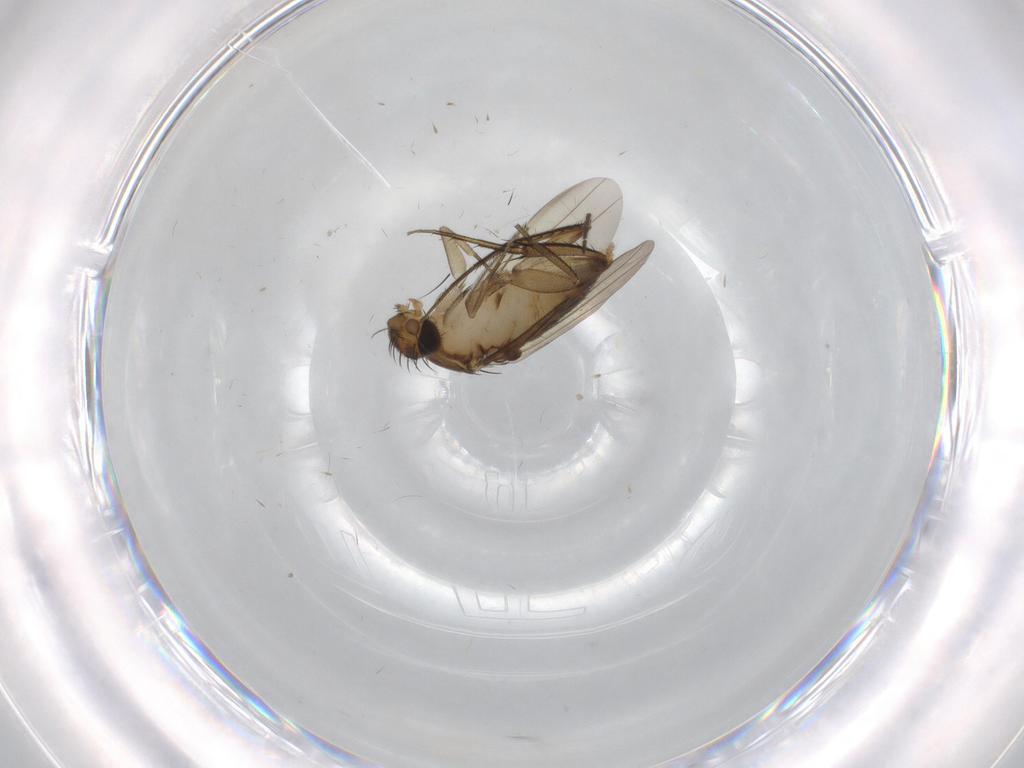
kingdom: Animalia
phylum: Arthropoda
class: Insecta
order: Diptera
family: Phoridae
